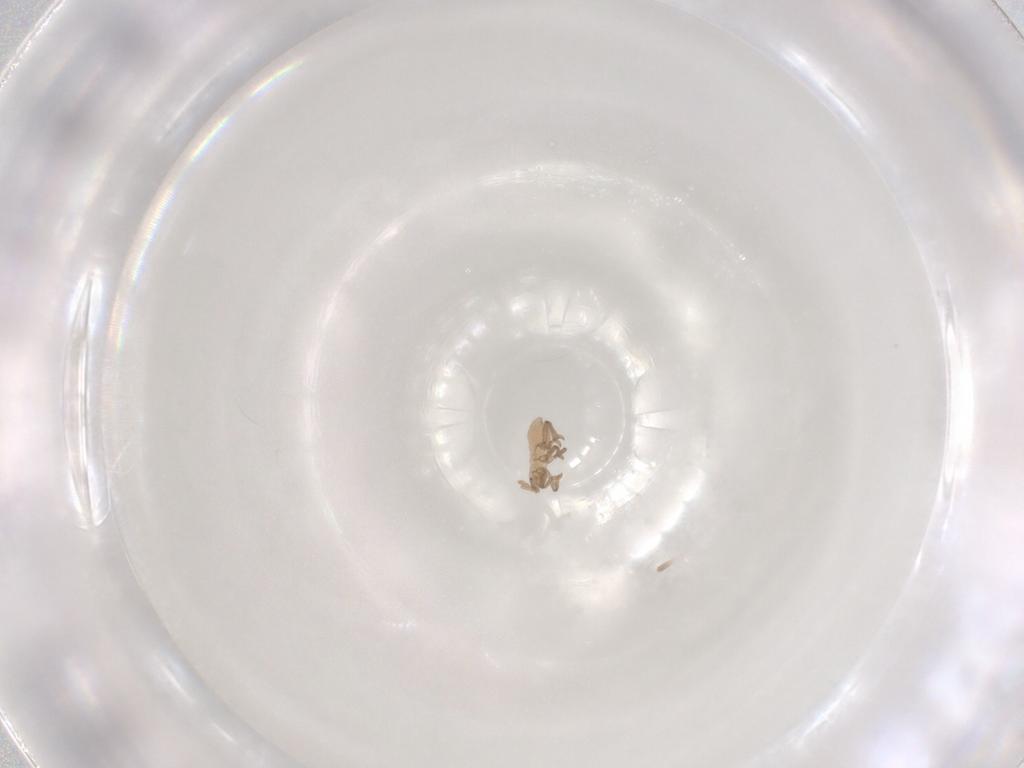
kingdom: Animalia
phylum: Arthropoda
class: Insecta
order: Hemiptera
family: Aphididae
